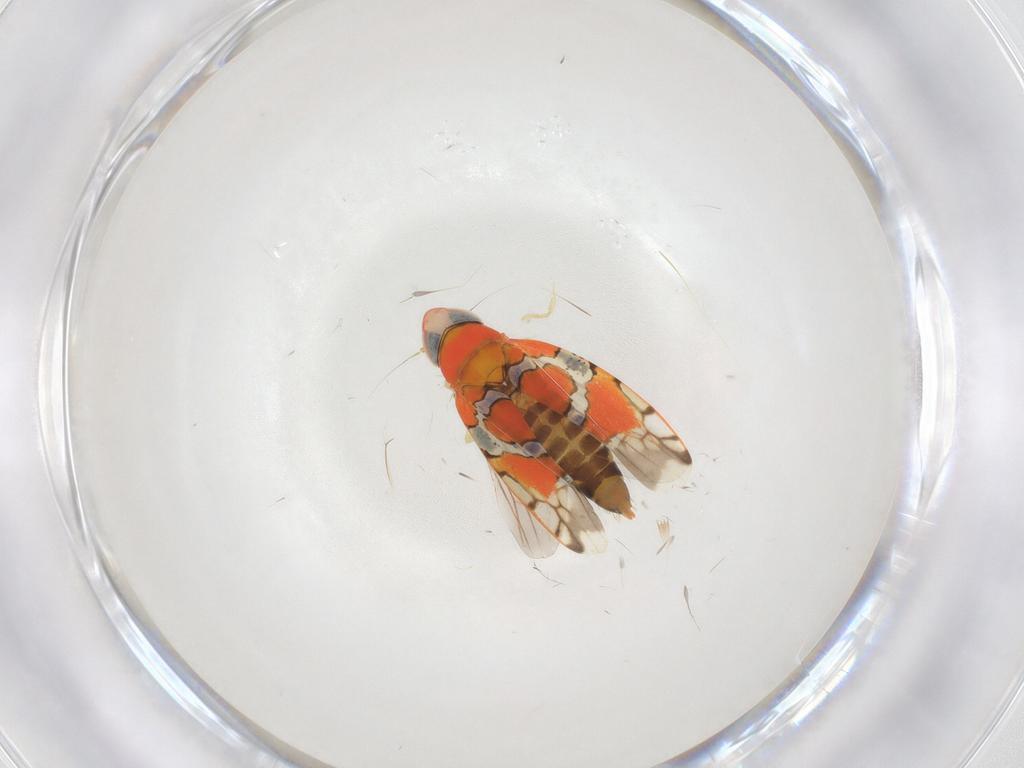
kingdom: Animalia
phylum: Arthropoda
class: Insecta
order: Hemiptera
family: Cicadellidae
